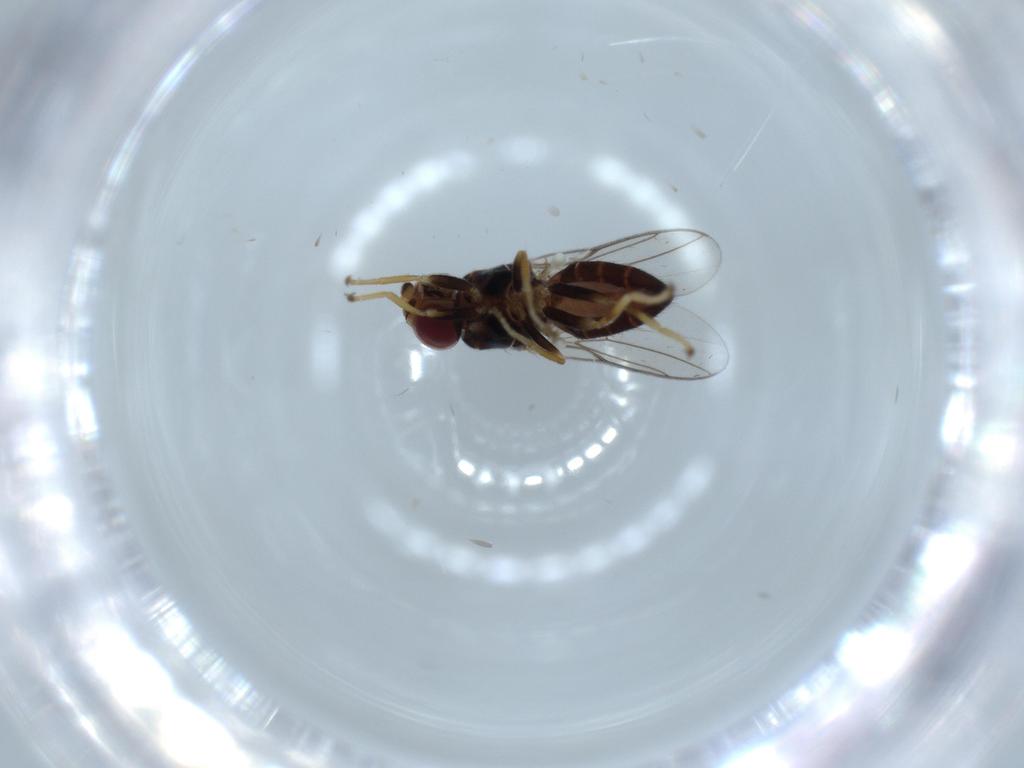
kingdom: Animalia
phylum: Arthropoda
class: Insecta
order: Diptera
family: Chloropidae
